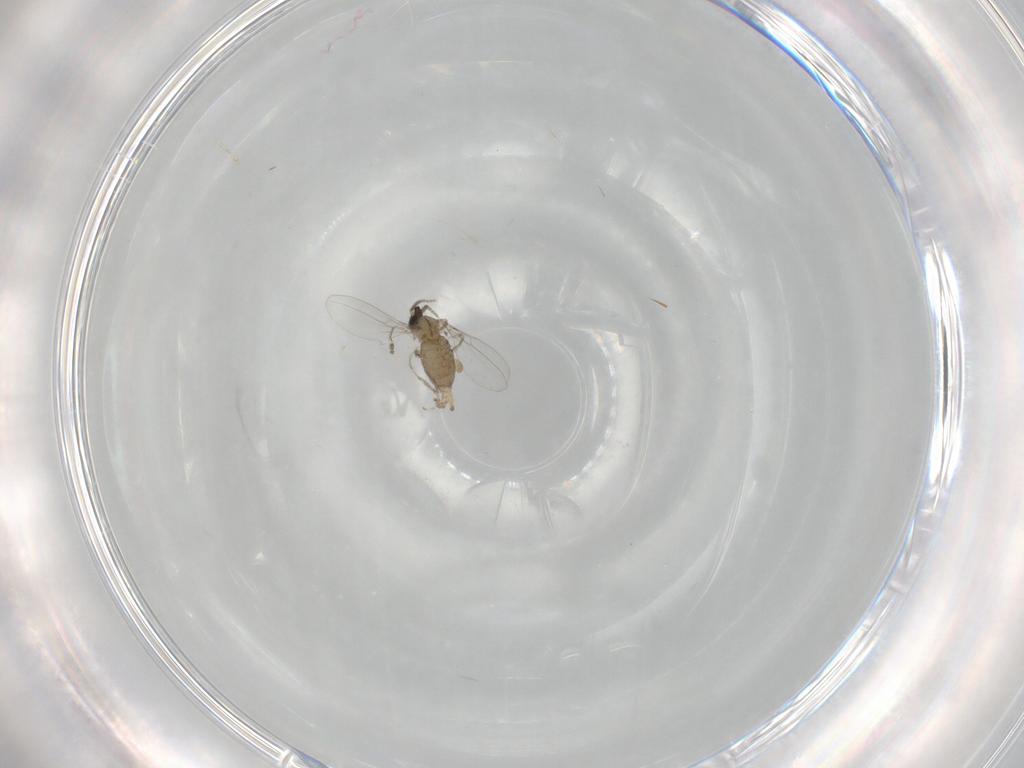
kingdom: Animalia
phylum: Arthropoda
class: Insecta
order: Diptera
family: Cecidomyiidae
